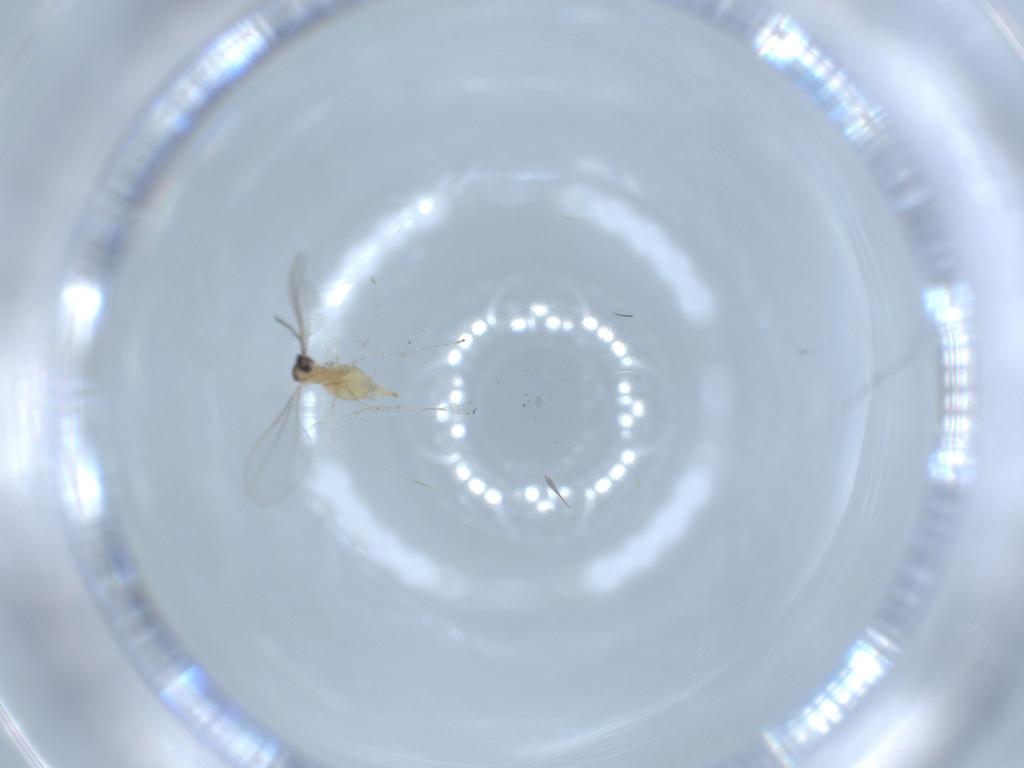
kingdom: Animalia
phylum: Arthropoda
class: Insecta
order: Diptera
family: Cecidomyiidae
